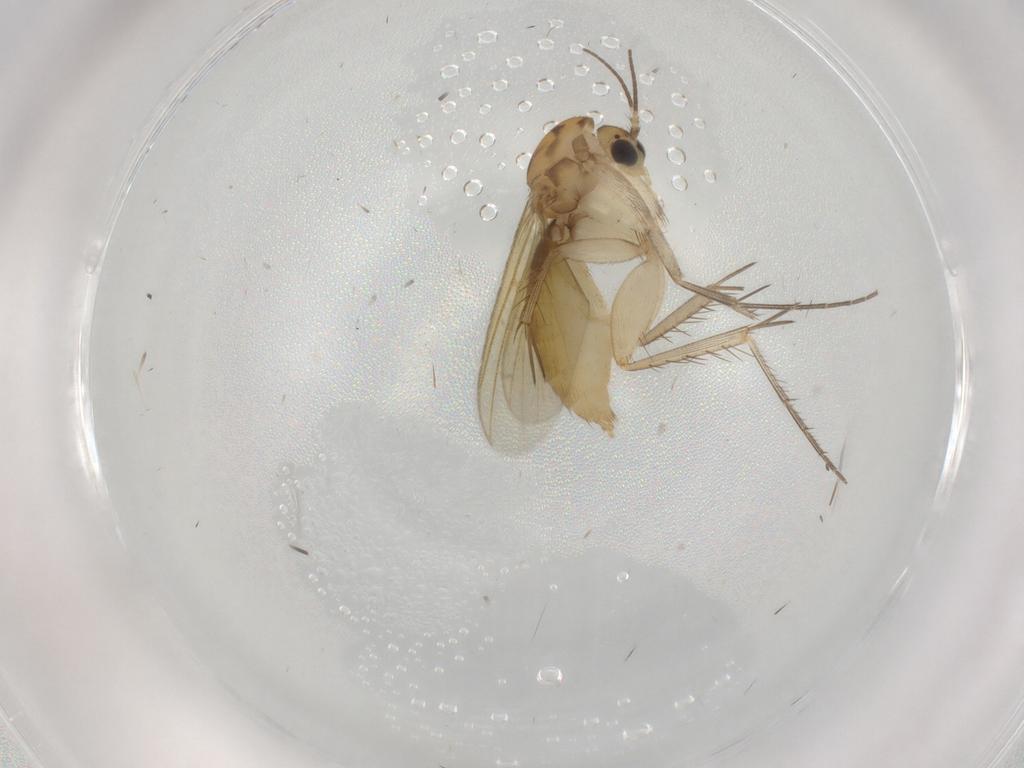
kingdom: Animalia
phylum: Arthropoda
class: Insecta
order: Diptera
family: Mycetophilidae
